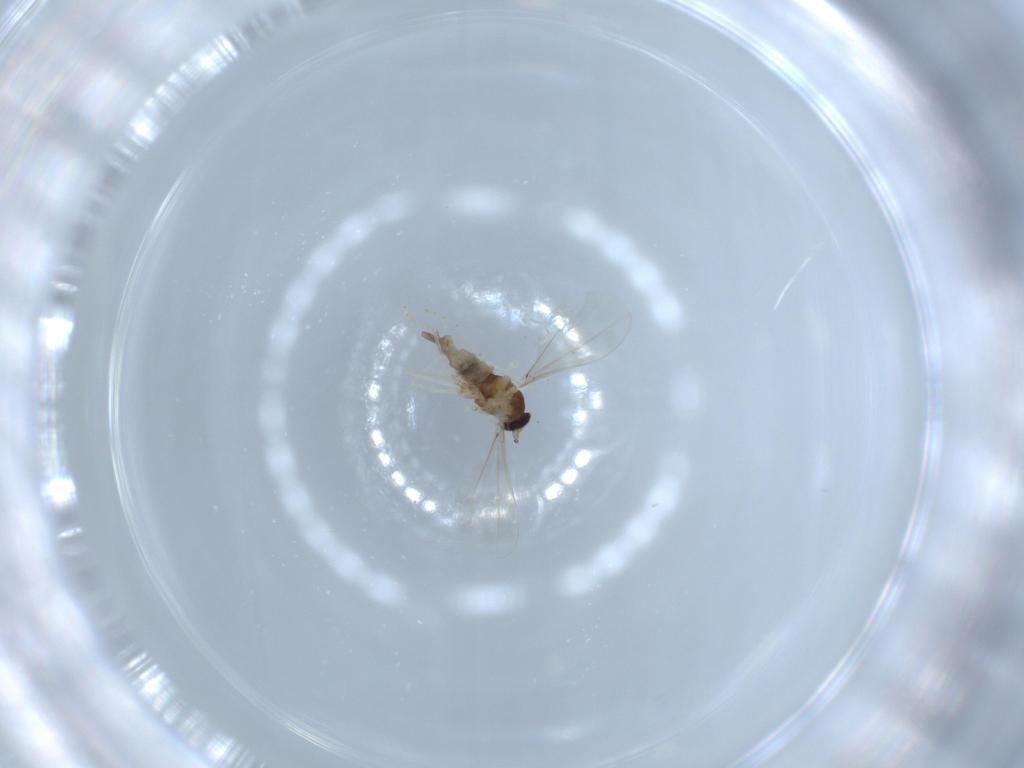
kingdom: Animalia
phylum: Arthropoda
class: Insecta
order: Diptera
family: Cecidomyiidae
